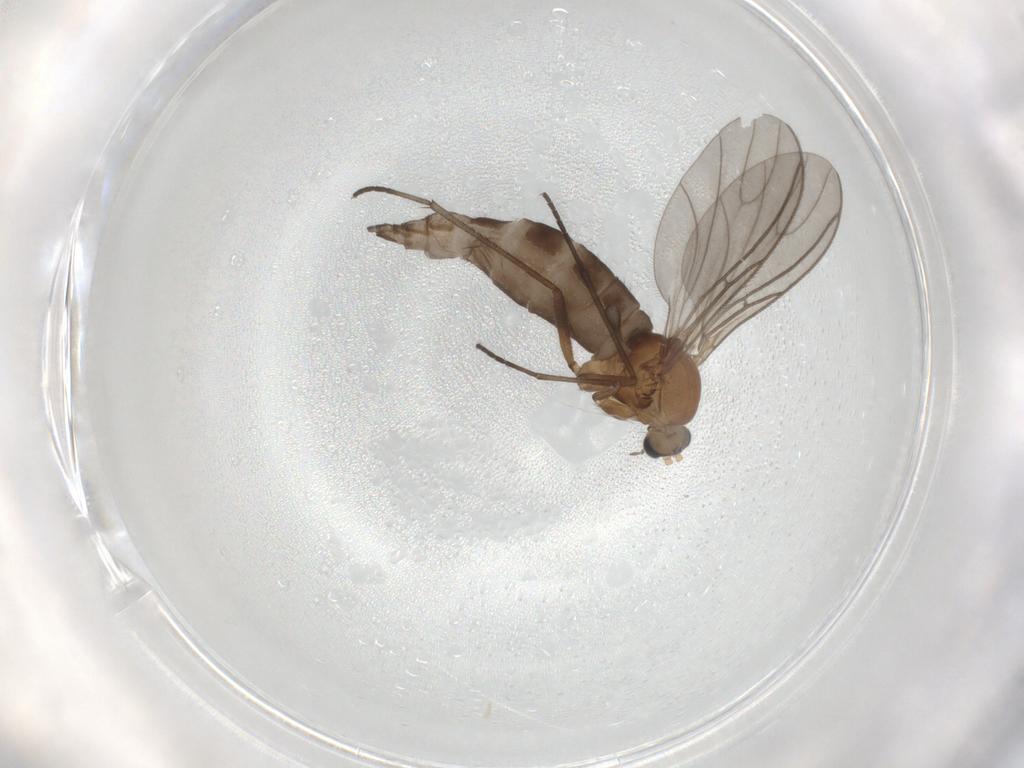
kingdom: Animalia
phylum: Arthropoda
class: Insecta
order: Diptera
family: Sciaridae
